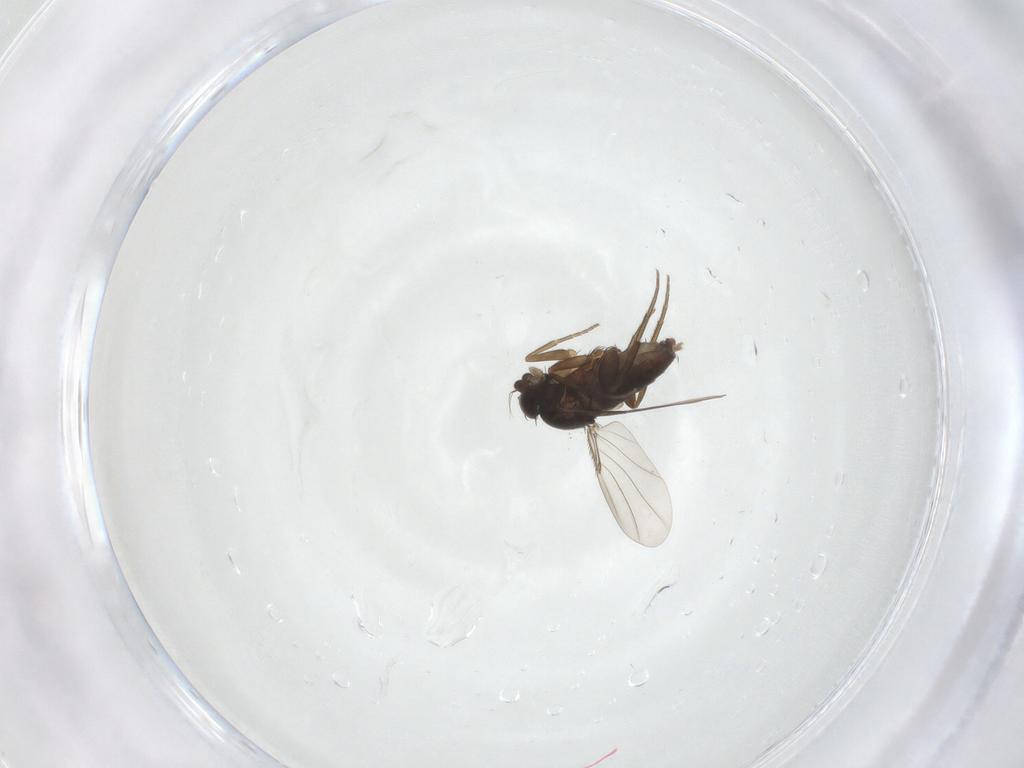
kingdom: Animalia
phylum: Arthropoda
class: Insecta
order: Diptera
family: Phoridae
